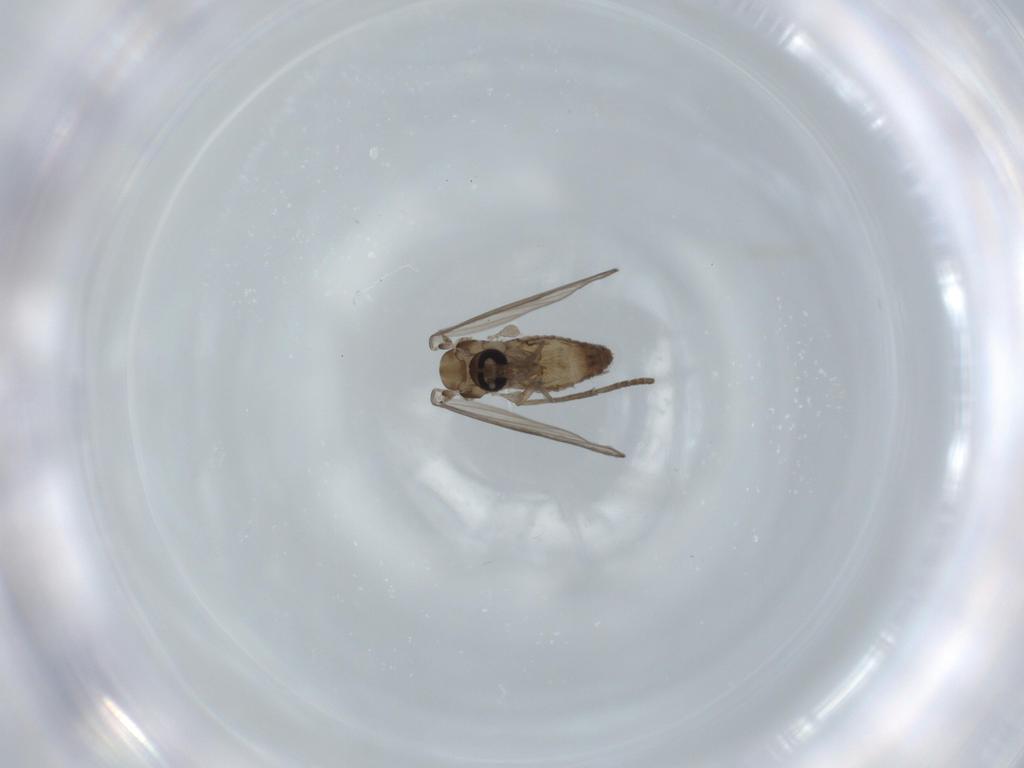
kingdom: Animalia
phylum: Arthropoda
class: Insecta
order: Diptera
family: Psychodidae
